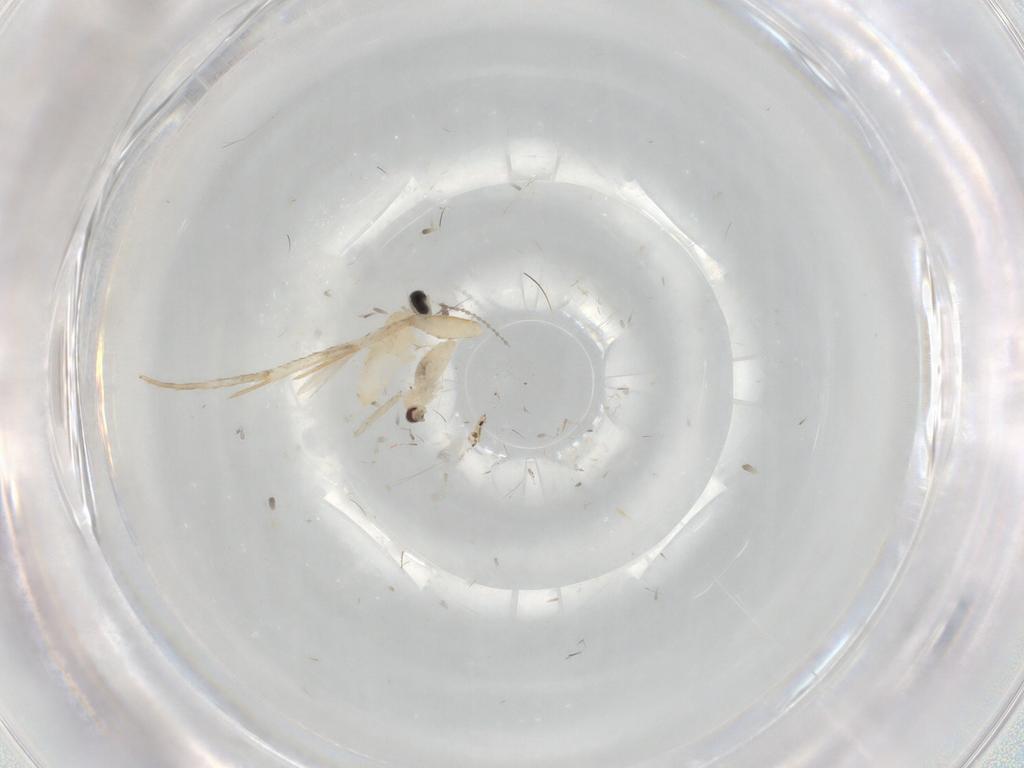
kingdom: Animalia
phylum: Arthropoda
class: Insecta
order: Diptera
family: Cecidomyiidae
